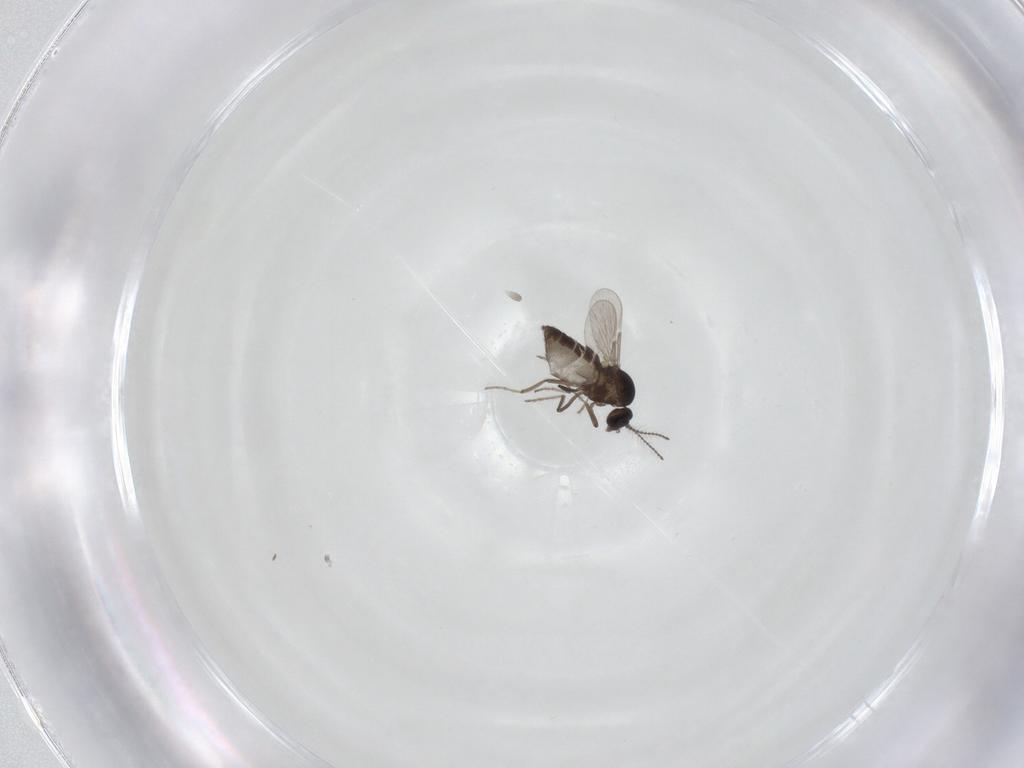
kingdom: Animalia
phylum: Arthropoda
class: Insecta
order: Diptera
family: Ceratopogonidae
